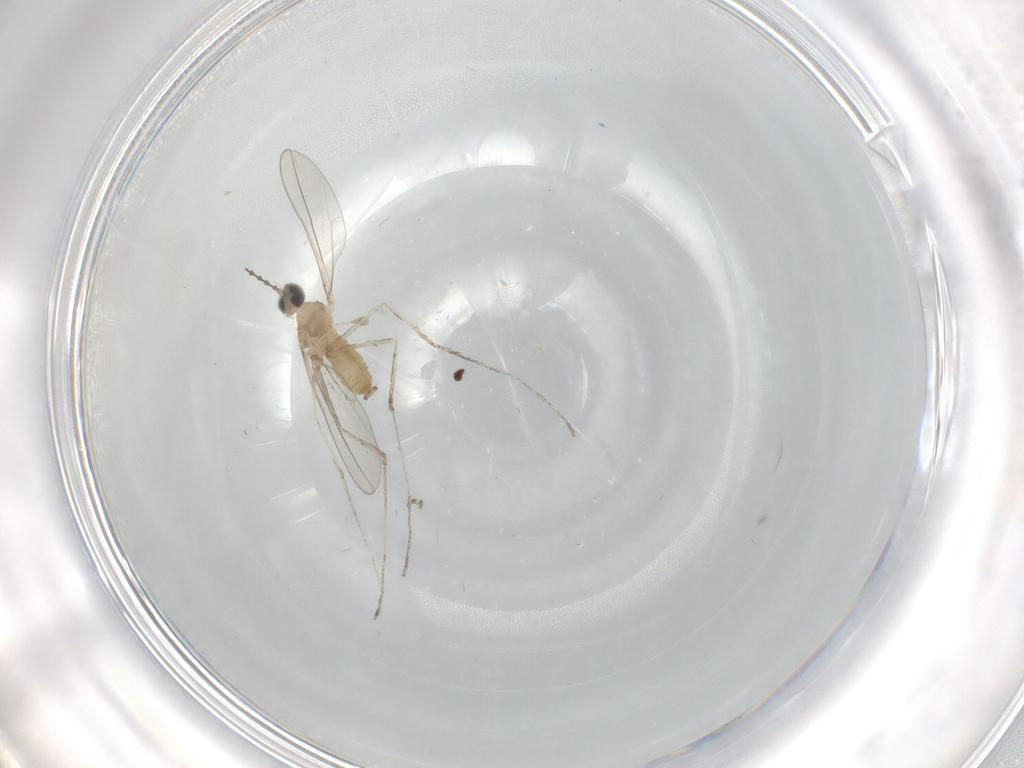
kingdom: Animalia
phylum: Arthropoda
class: Insecta
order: Diptera
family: Cecidomyiidae
